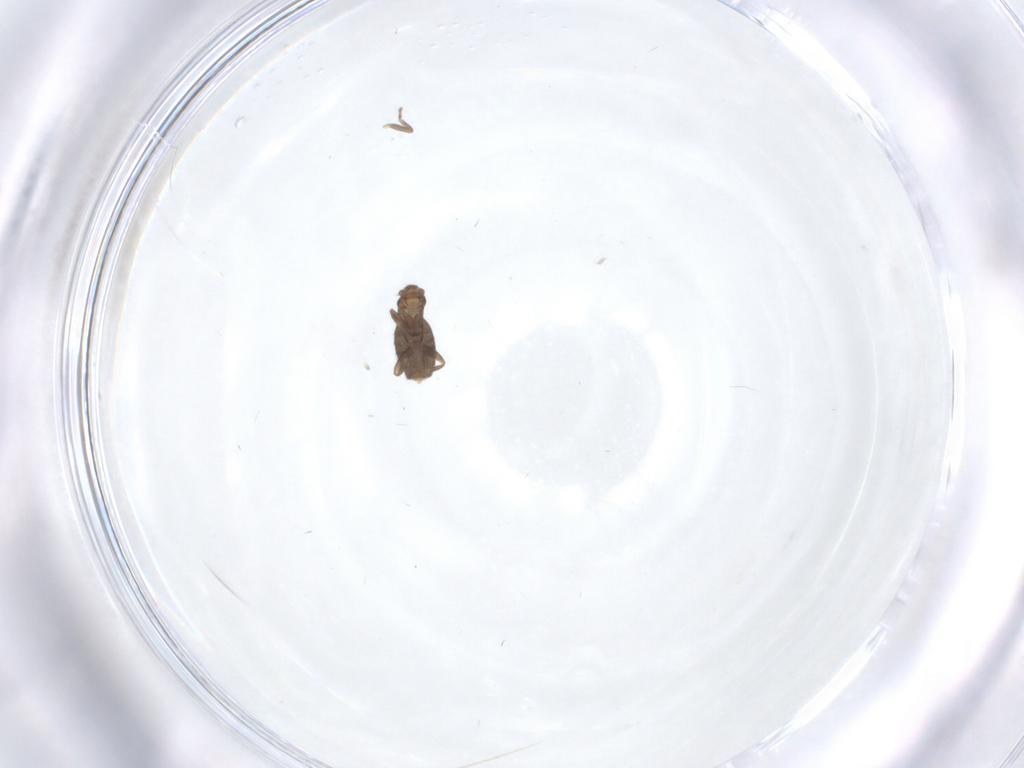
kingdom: Animalia
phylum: Arthropoda
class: Insecta
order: Diptera
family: Phoridae
